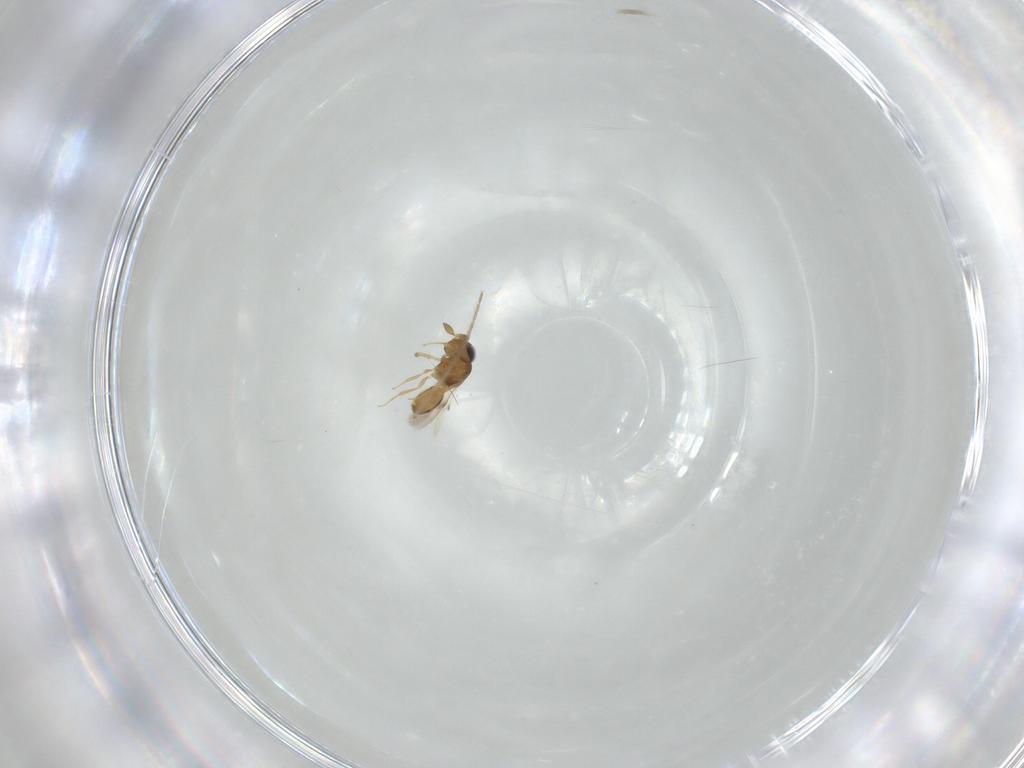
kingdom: Animalia
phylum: Arthropoda
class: Insecta
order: Hymenoptera
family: Scelionidae
